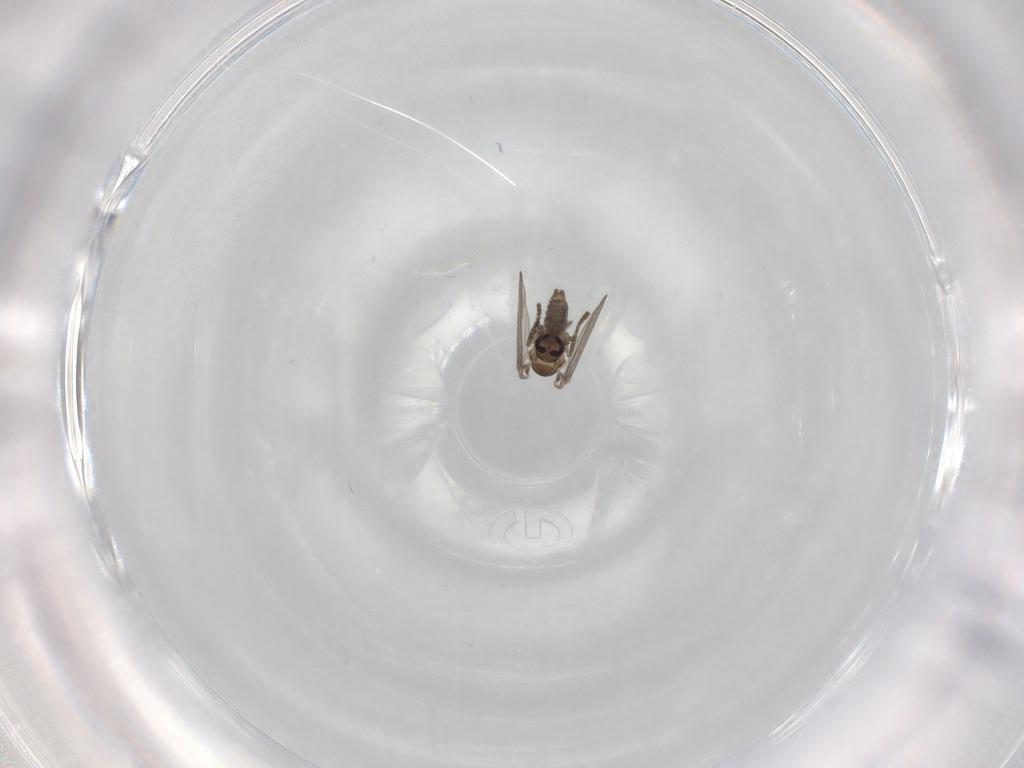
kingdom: Animalia
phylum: Arthropoda
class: Insecta
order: Diptera
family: Psychodidae
